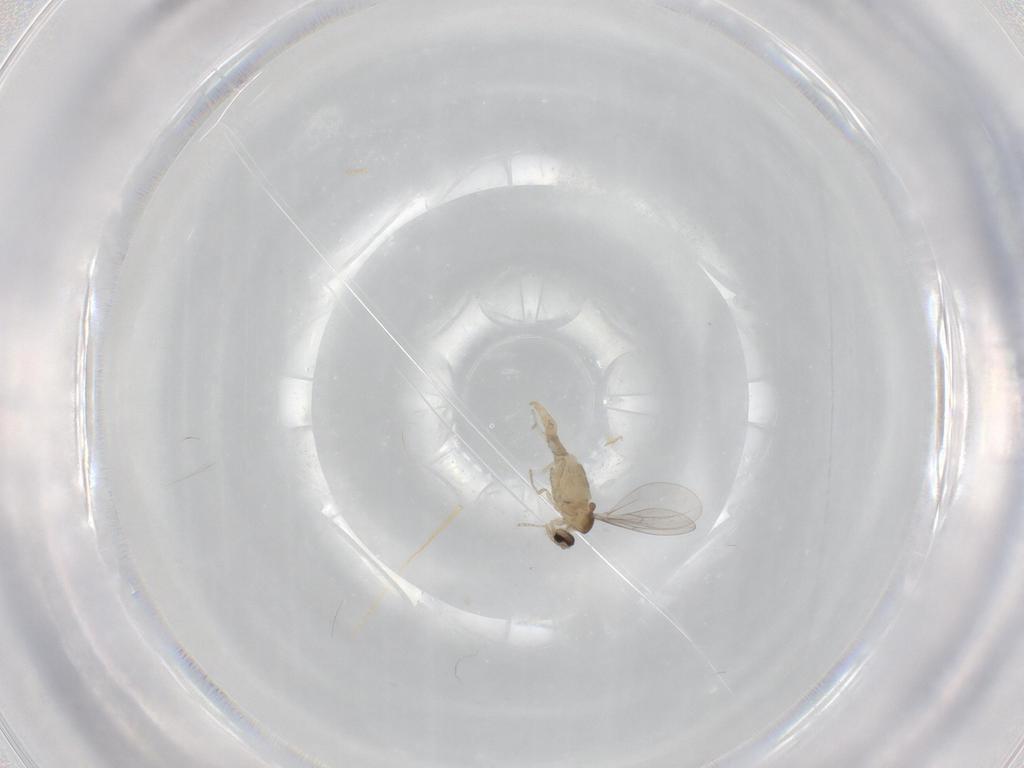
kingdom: Animalia
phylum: Arthropoda
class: Insecta
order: Diptera
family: Cecidomyiidae
